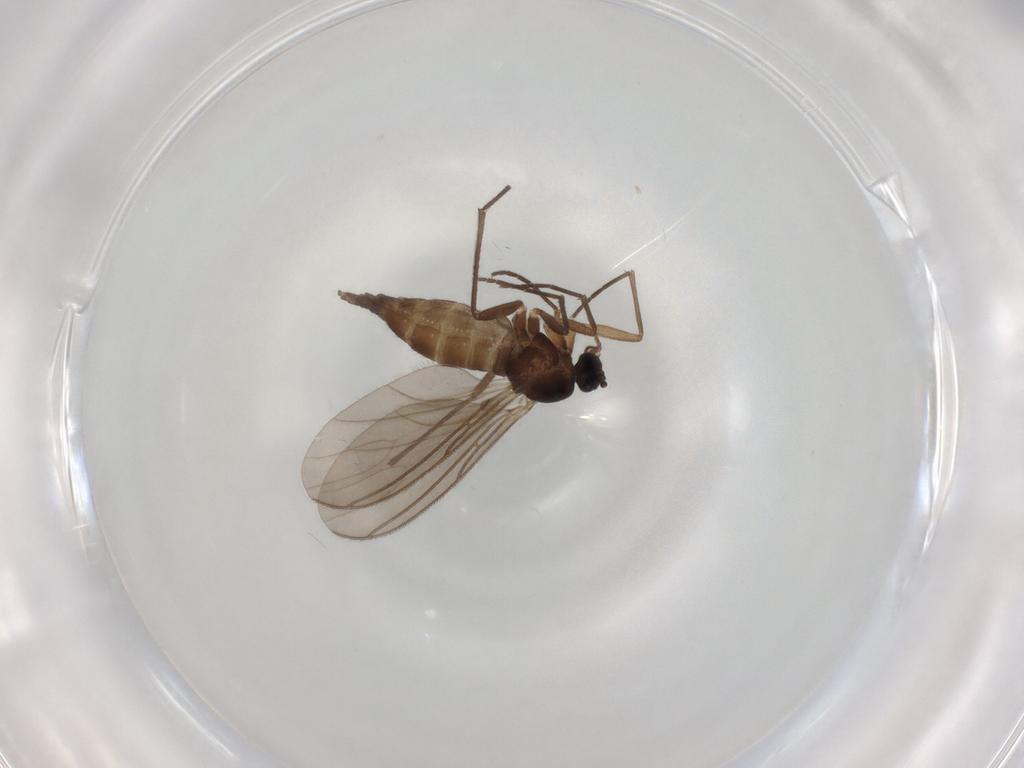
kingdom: Animalia
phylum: Arthropoda
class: Insecta
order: Diptera
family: Sciaridae
